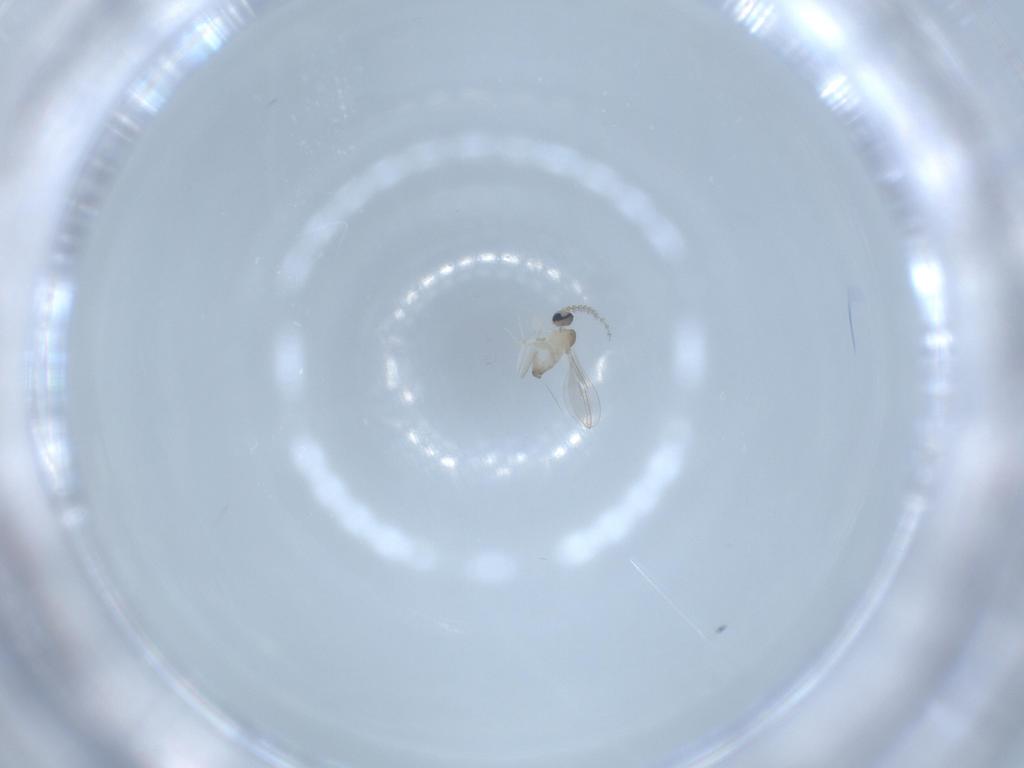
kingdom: Animalia
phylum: Arthropoda
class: Insecta
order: Diptera
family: Cecidomyiidae
